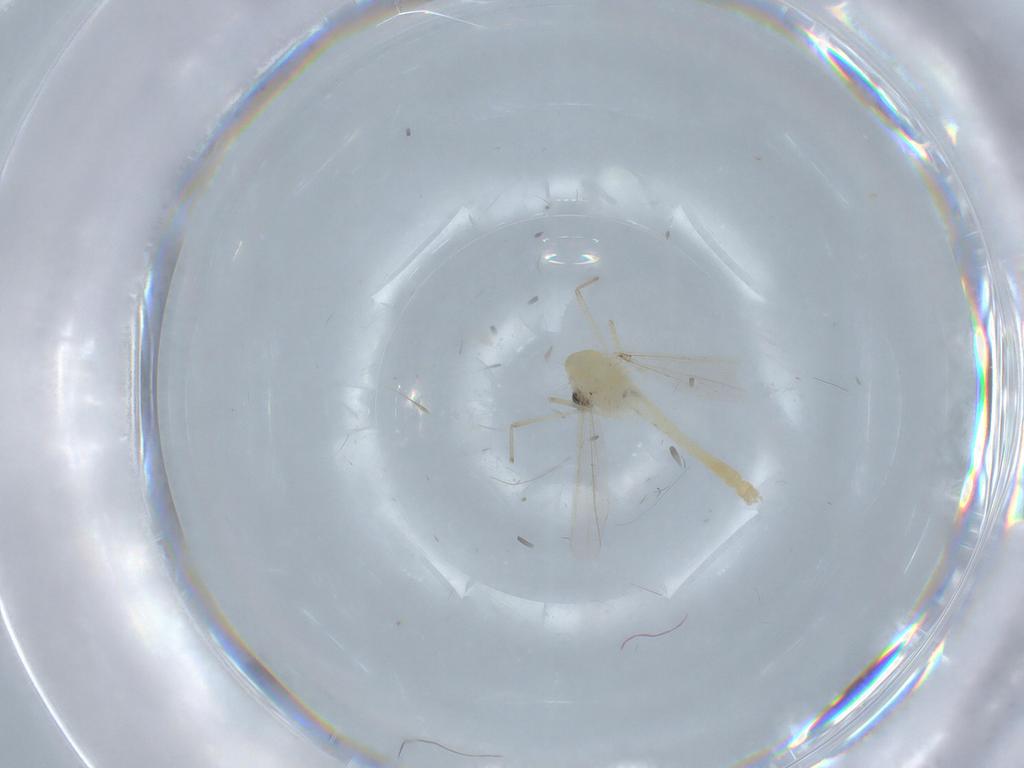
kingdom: Animalia
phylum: Arthropoda
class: Insecta
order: Diptera
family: Chironomidae
